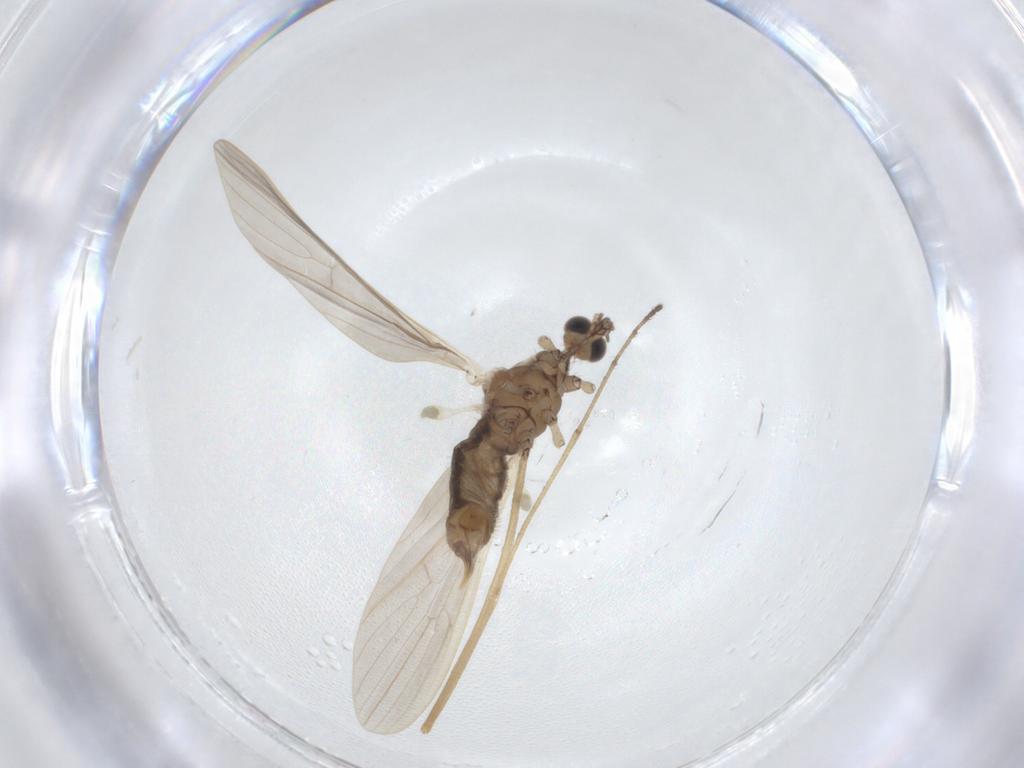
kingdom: Animalia
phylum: Arthropoda
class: Insecta
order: Diptera
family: Limoniidae
